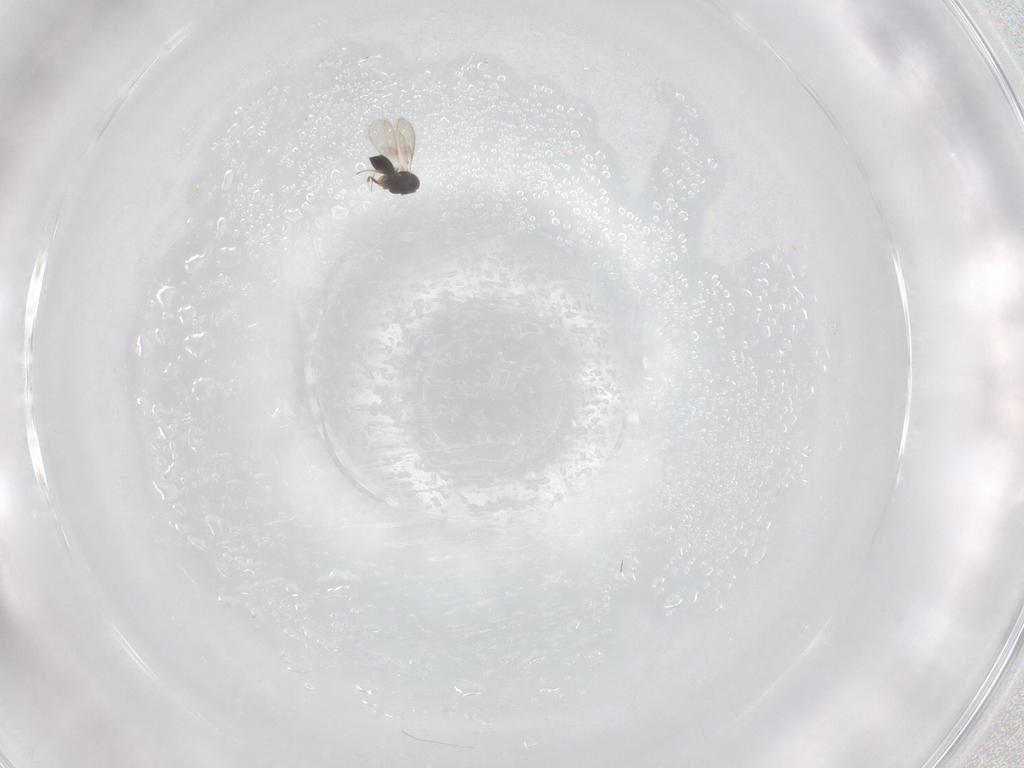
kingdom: Animalia
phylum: Arthropoda
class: Insecta
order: Hymenoptera
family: Scelionidae
